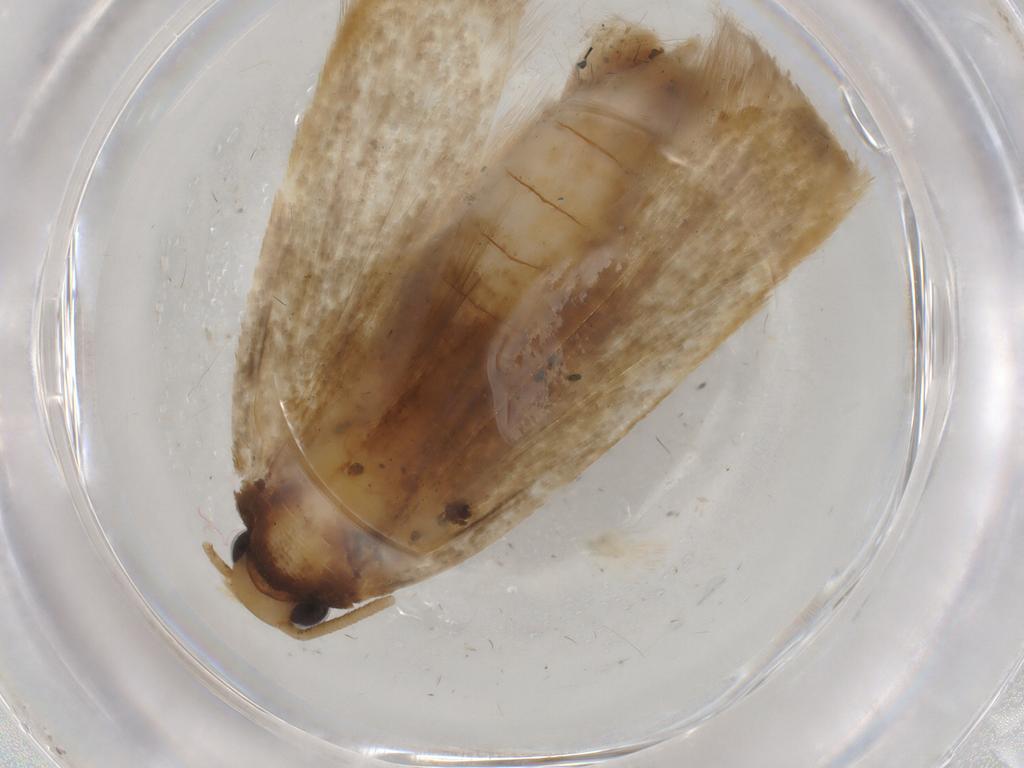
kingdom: Animalia
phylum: Arthropoda
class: Insecta
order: Lepidoptera
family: Tineidae
